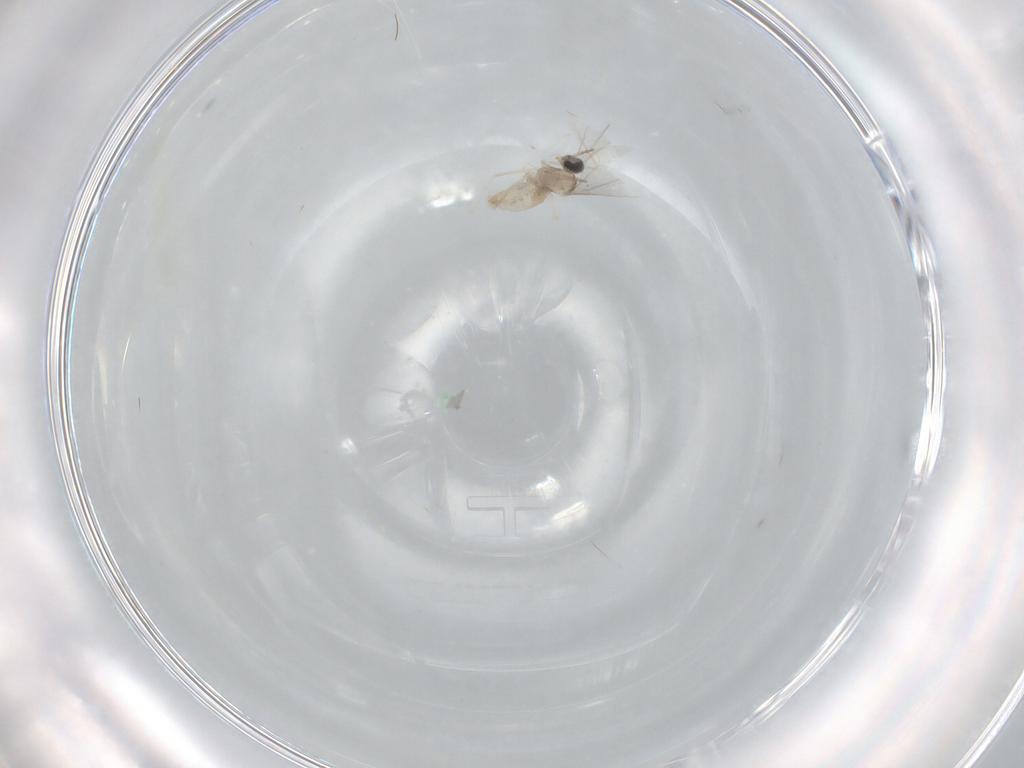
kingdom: Animalia
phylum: Arthropoda
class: Insecta
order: Diptera
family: Cecidomyiidae
